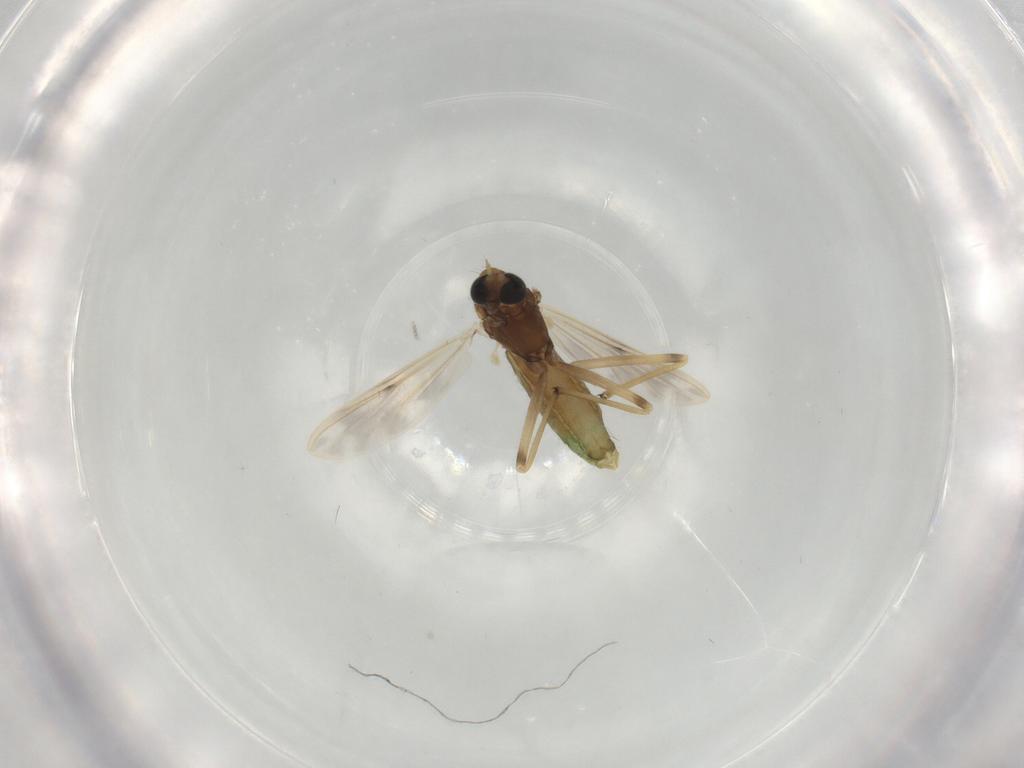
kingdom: Animalia
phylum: Arthropoda
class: Insecta
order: Diptera
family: Chironomidae
